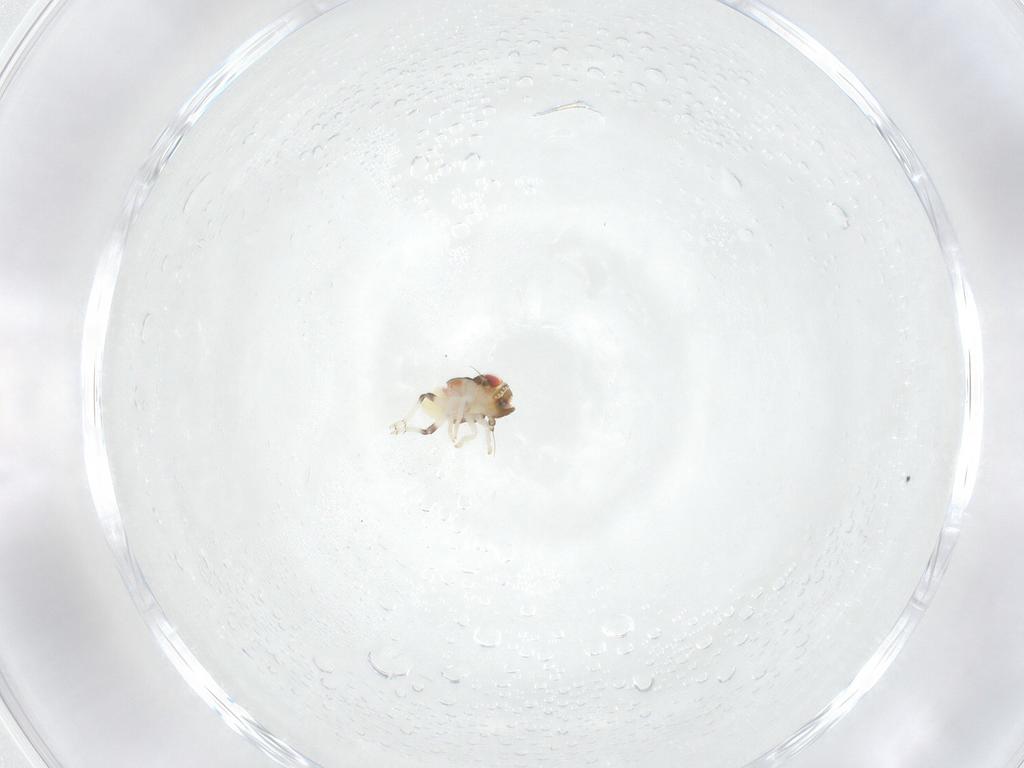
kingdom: Animalia
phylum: Arthropoda
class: Insecta
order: Hemiptera
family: Nogodinidae
